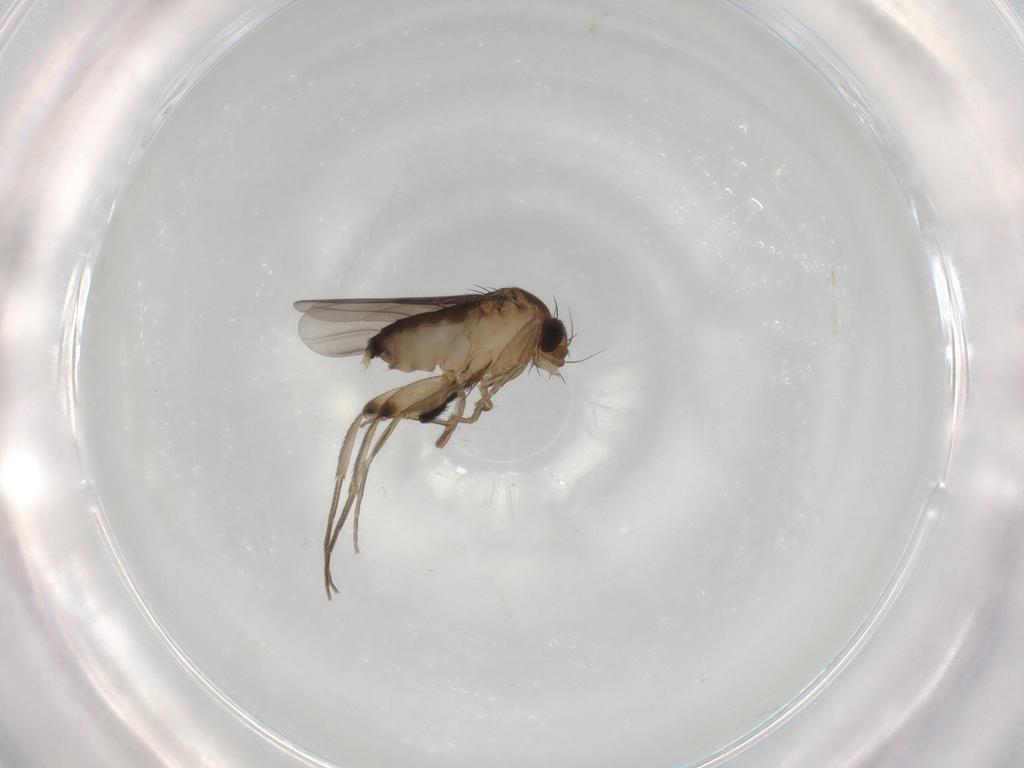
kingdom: Animalia
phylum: Arthropoda
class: Insecta
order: Diptera
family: Phoridae
